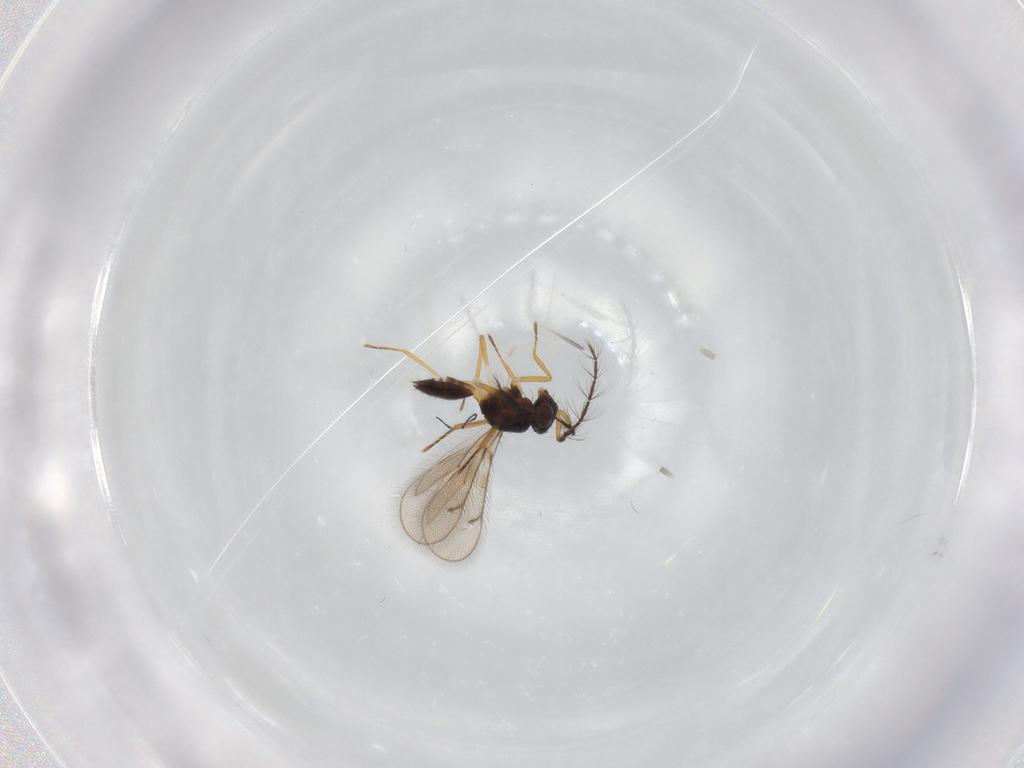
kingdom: Animalia
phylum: Arthropoda
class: Insecta
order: Hymenoptera
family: Eulophidae
